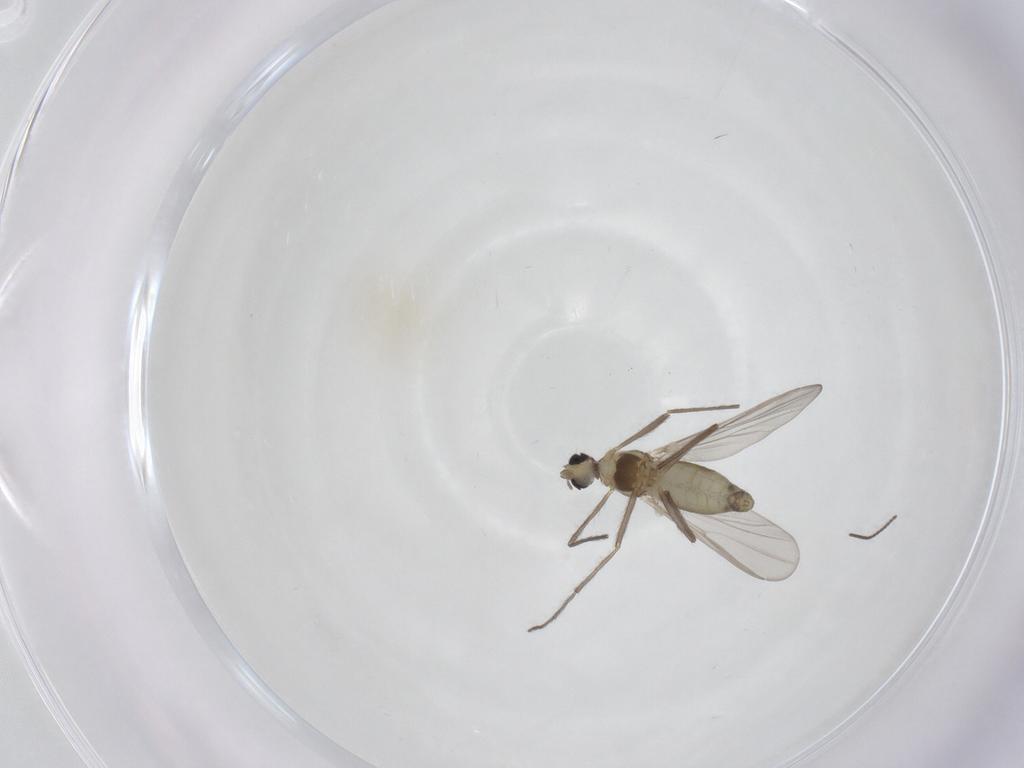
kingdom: Animalia
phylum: Arthropoda
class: Insecta
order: Diptera
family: Chironomidae
